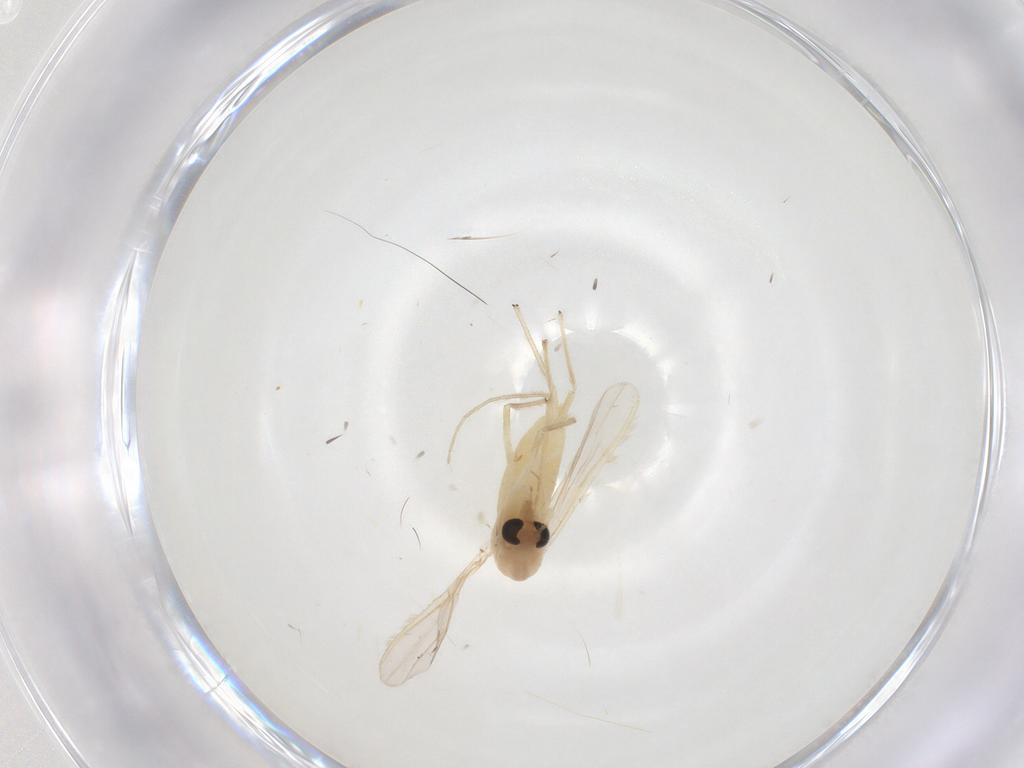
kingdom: Animalia
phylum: Arthropoda
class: Insecta
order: Diptera
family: Chironomidae
